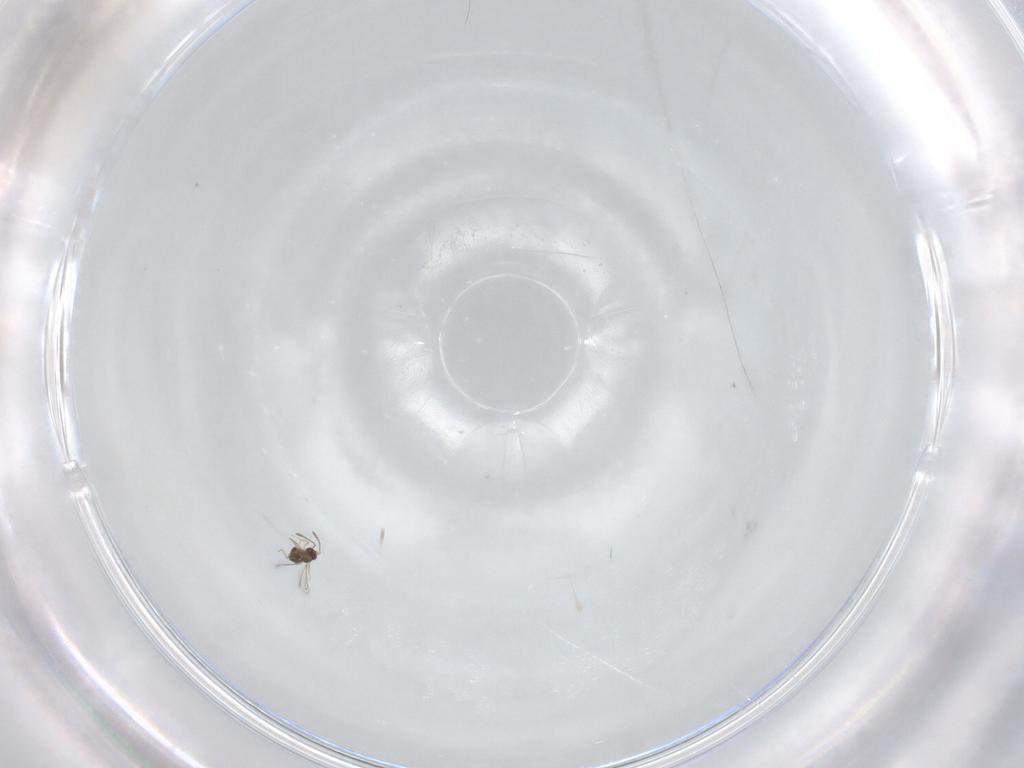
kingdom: Animalia
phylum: Arthropoda
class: Insecta
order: Hymenoptera
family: Mymaridae
